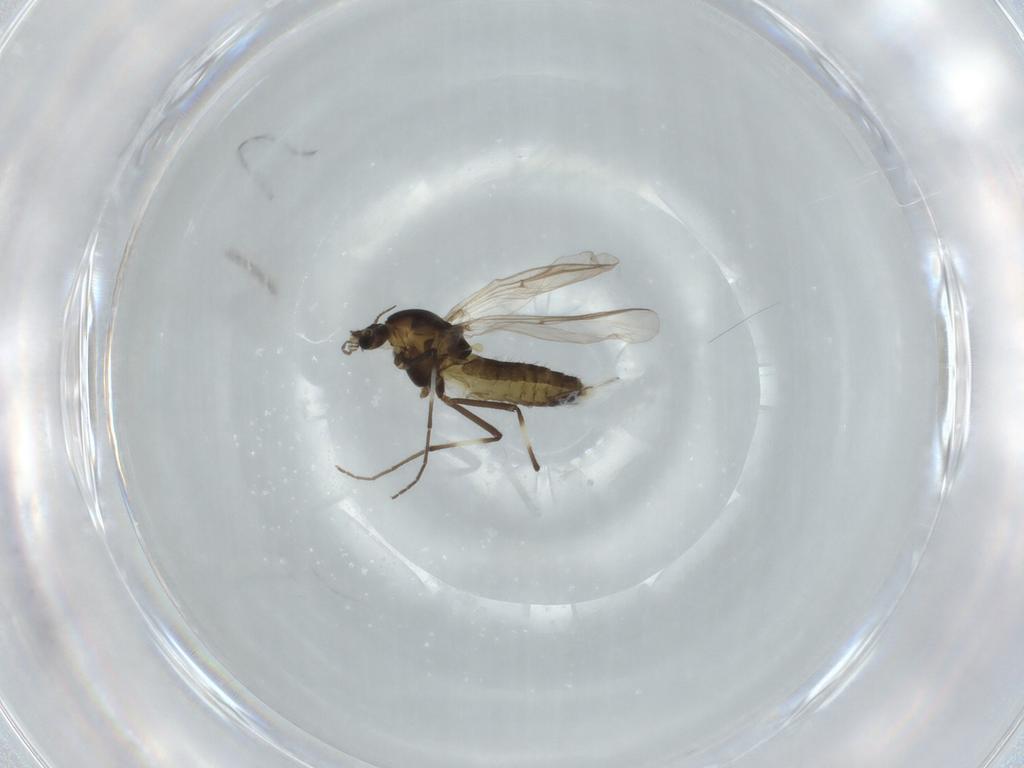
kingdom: Animalia
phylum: Arthropoda
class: Insecta
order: Diptera
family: Chironomidae
